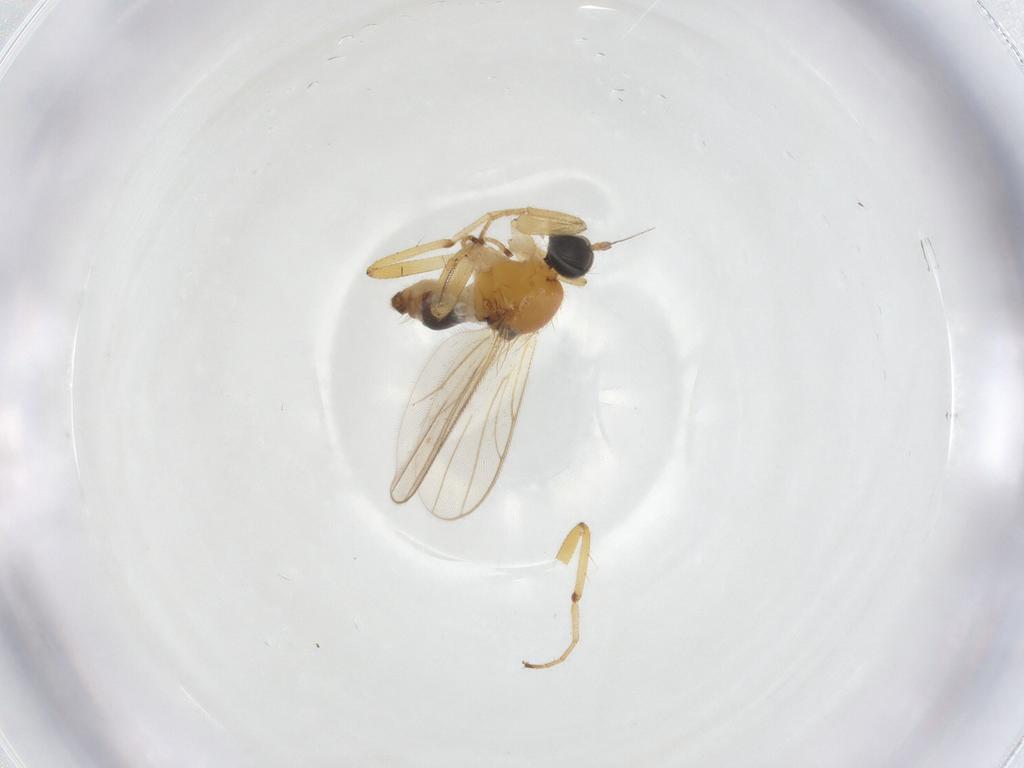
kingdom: Animalia
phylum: Arthropoda
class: Insecta
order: Diptera
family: Hybotidae
